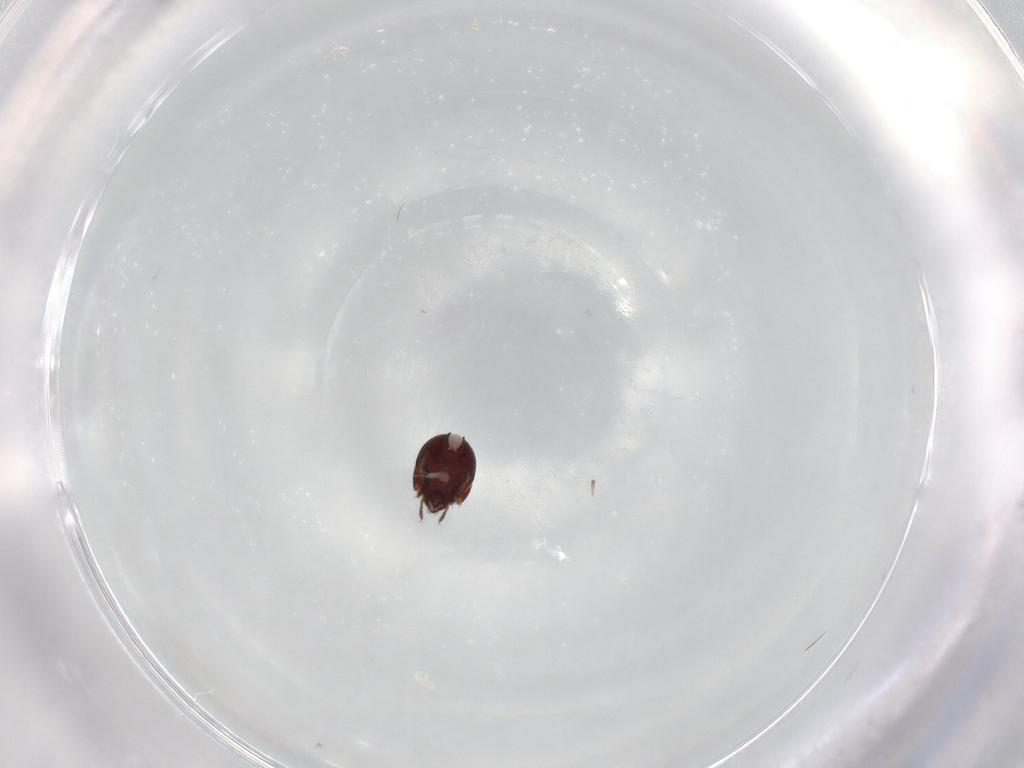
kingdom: Animalia
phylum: Arthropoda
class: Arachnida
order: Sarcoptiformes
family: Humerobatidae
